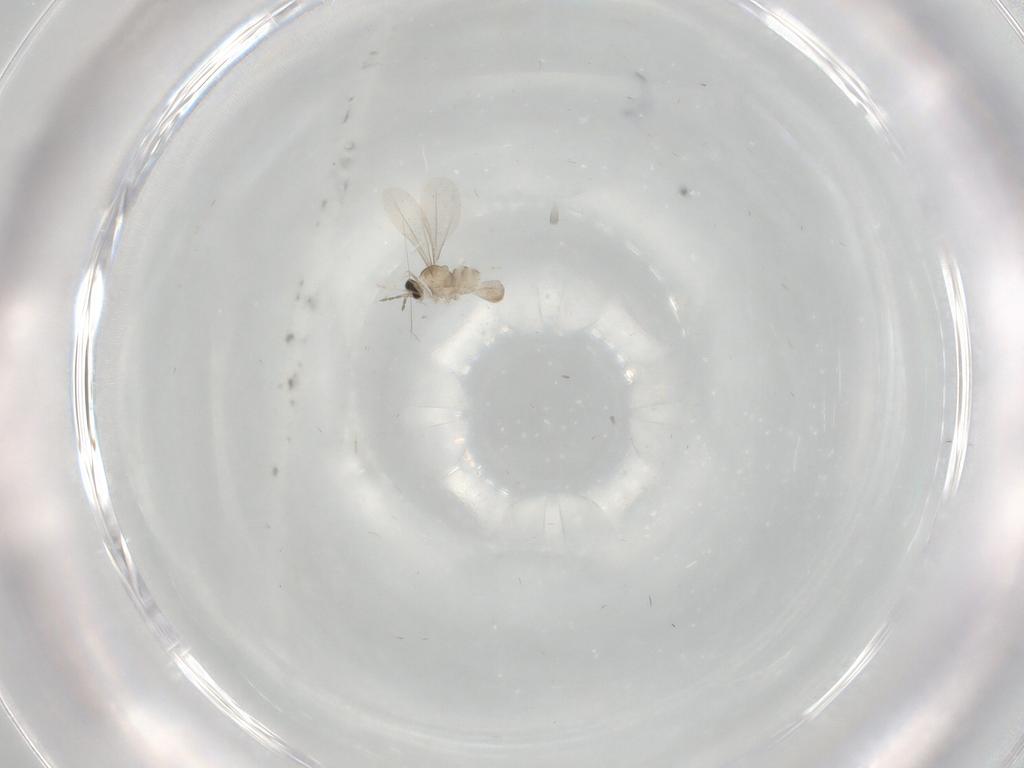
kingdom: Animalia
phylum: Arthropoda
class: Insecta
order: Diptera
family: Cecidomyiidae
